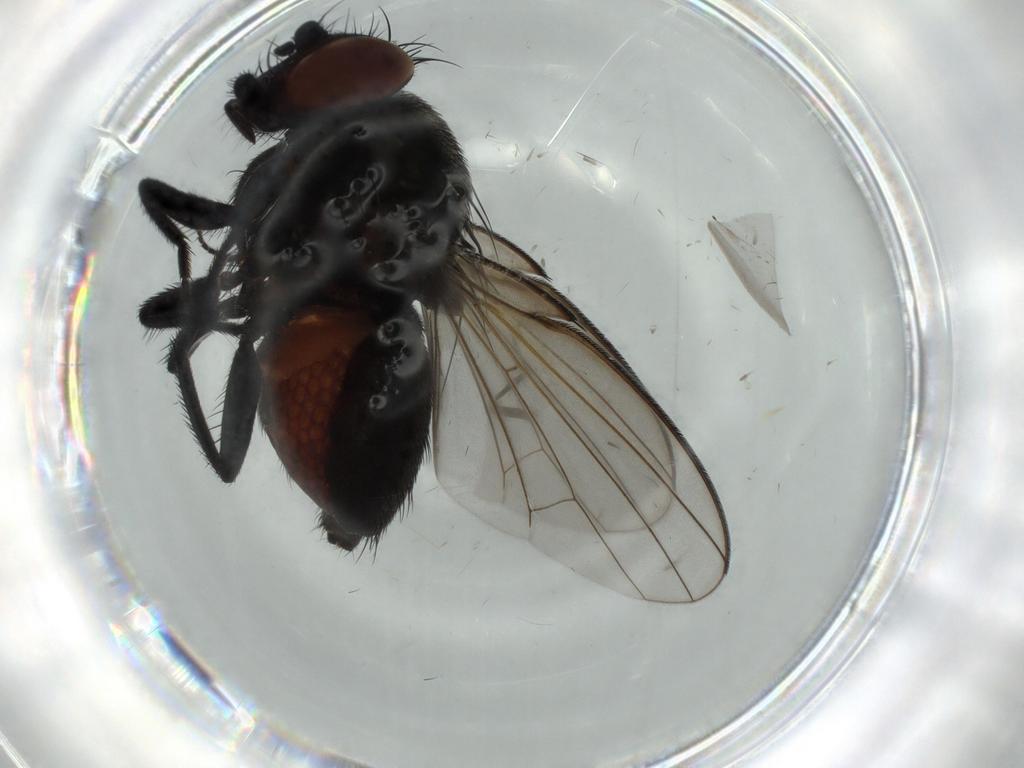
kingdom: Animalia
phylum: Arthropoda
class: Insecta
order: Diptera
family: Milichiidae
